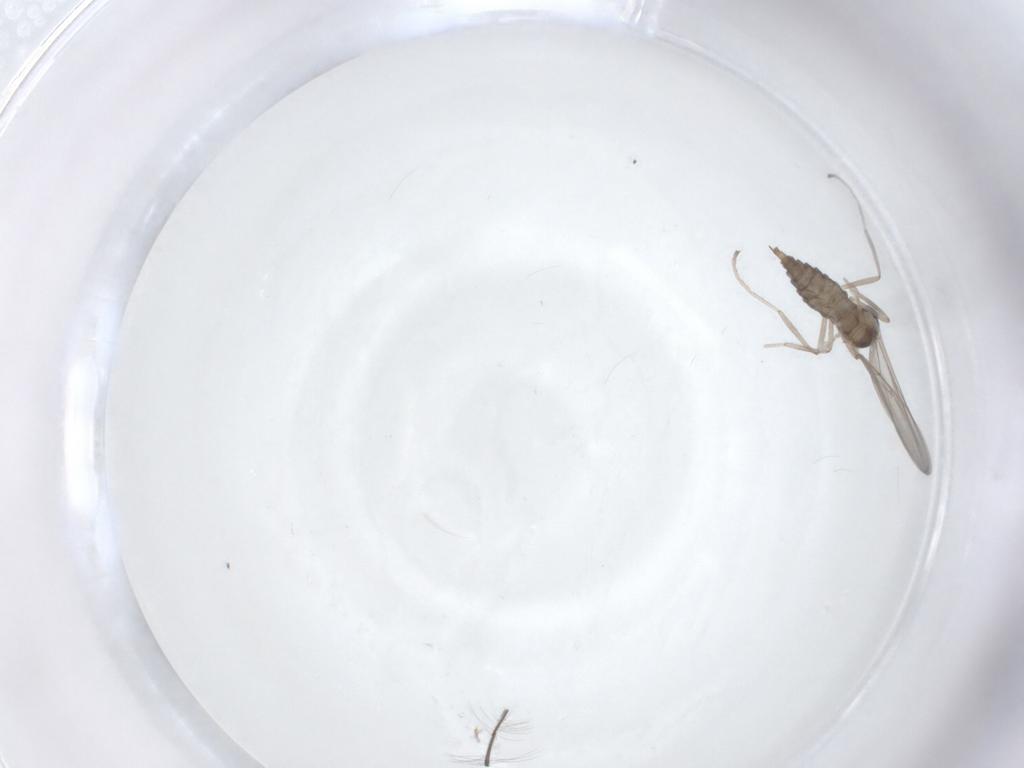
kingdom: Animalia
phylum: Arthropoda
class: Insecta
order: Diptera
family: Cecidomyiidae
